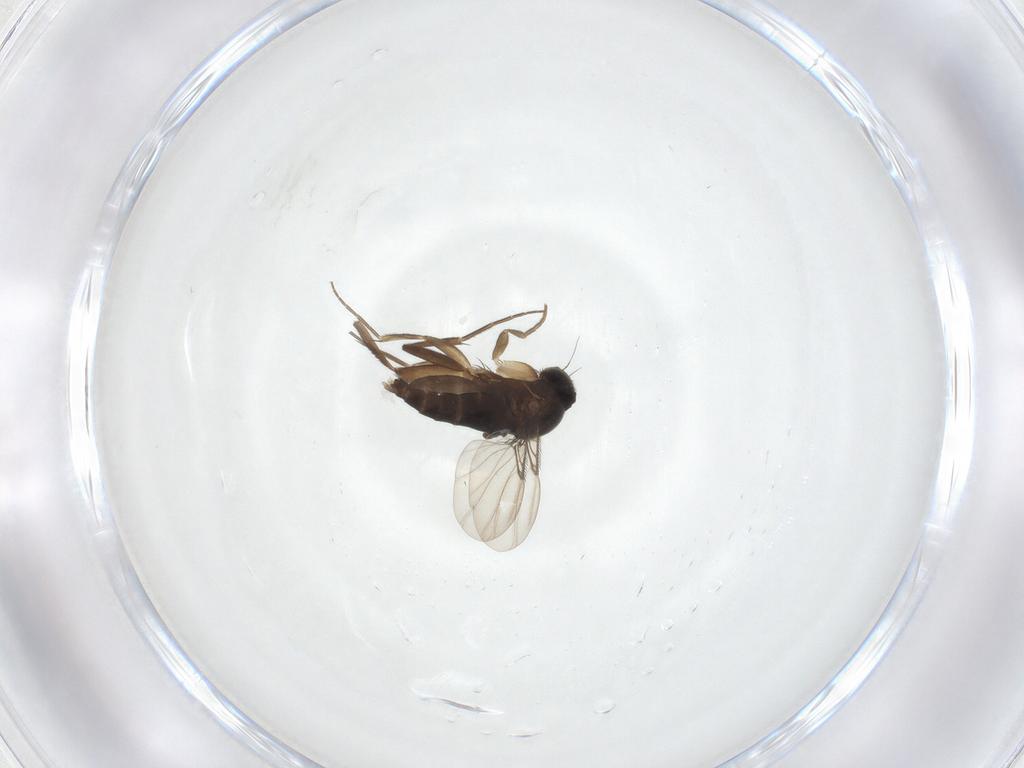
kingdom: Animalia
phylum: Arthropoda
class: Insecta
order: Diptera
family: Phoridae
